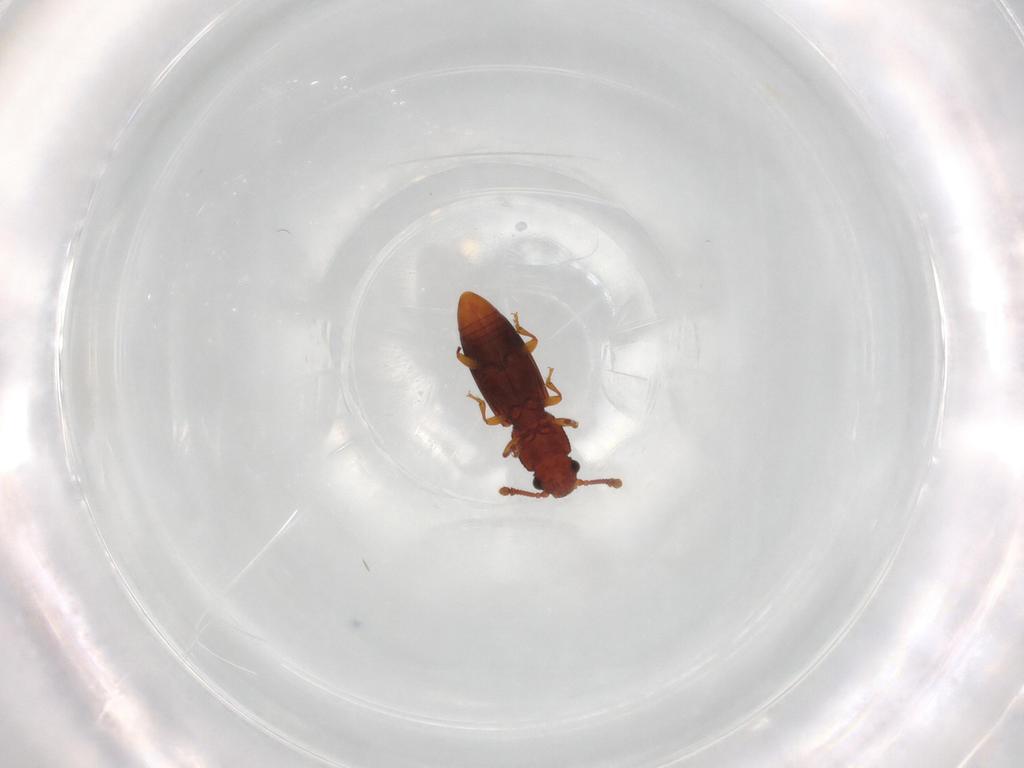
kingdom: Animalia
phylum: Arthropoda
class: Insecta
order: Coleoptera
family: Monotomidae
